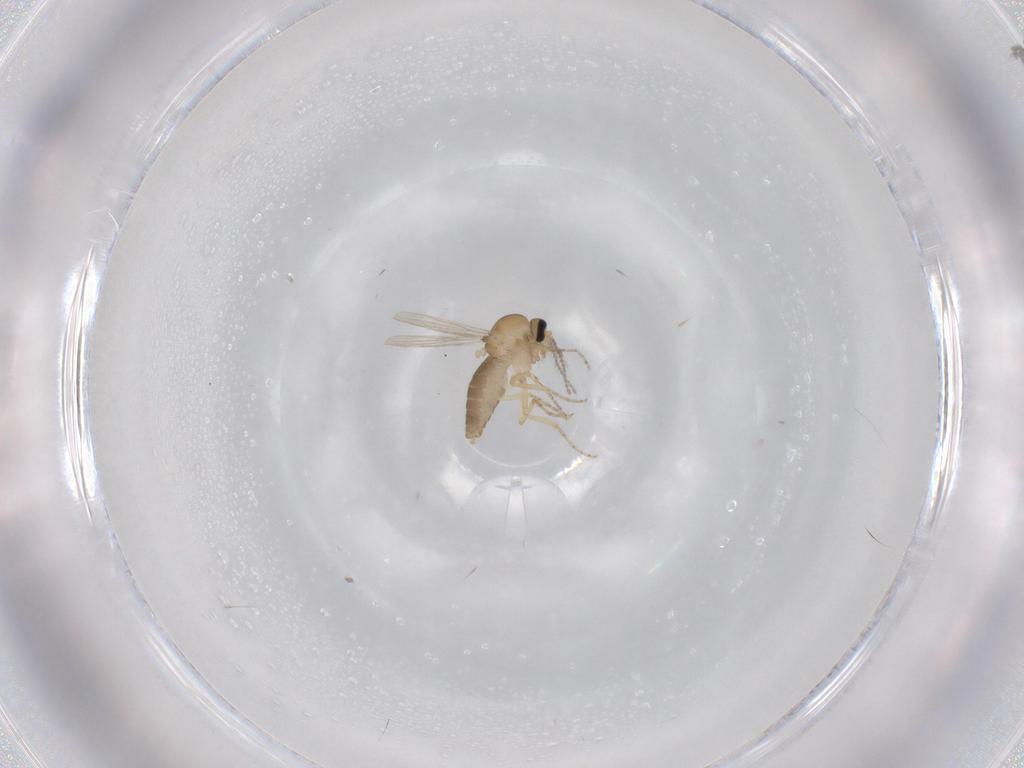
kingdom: Animalia
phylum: Arthropoda
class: Insecta
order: Diptera
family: Ceratopogonidae
